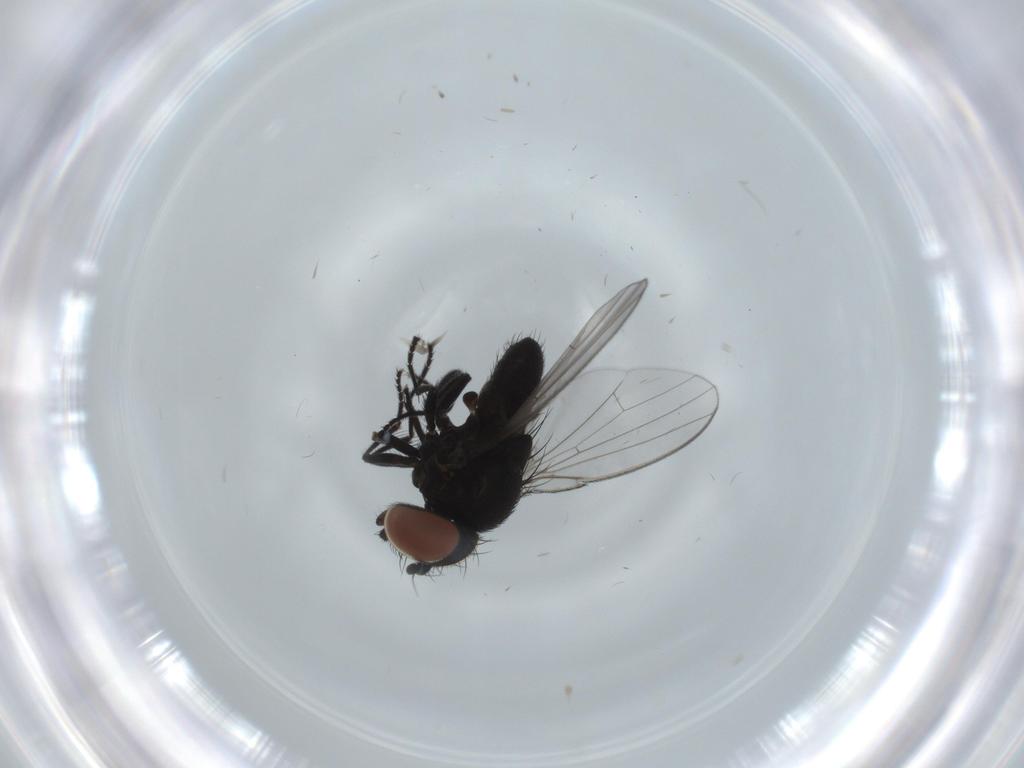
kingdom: Animalia
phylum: Arthropoda
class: Insecta
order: Diptera
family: Milichiidae
